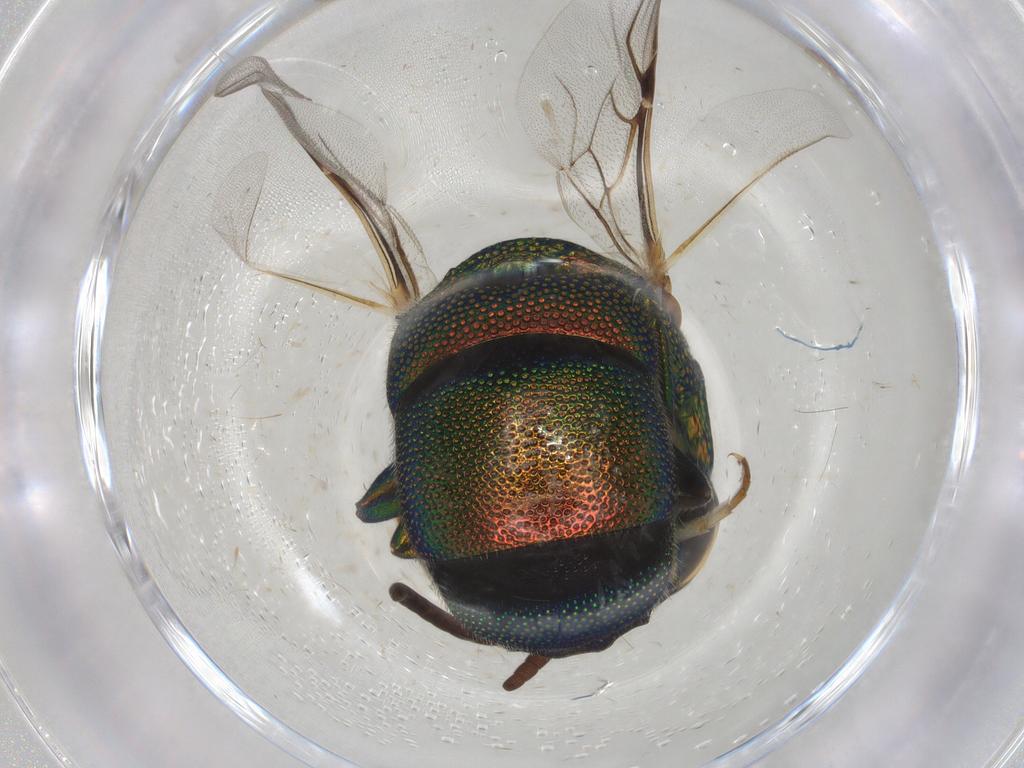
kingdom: Animalia
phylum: Arthropoda
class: Insecta
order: Hymenoptera
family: Chrysididae
